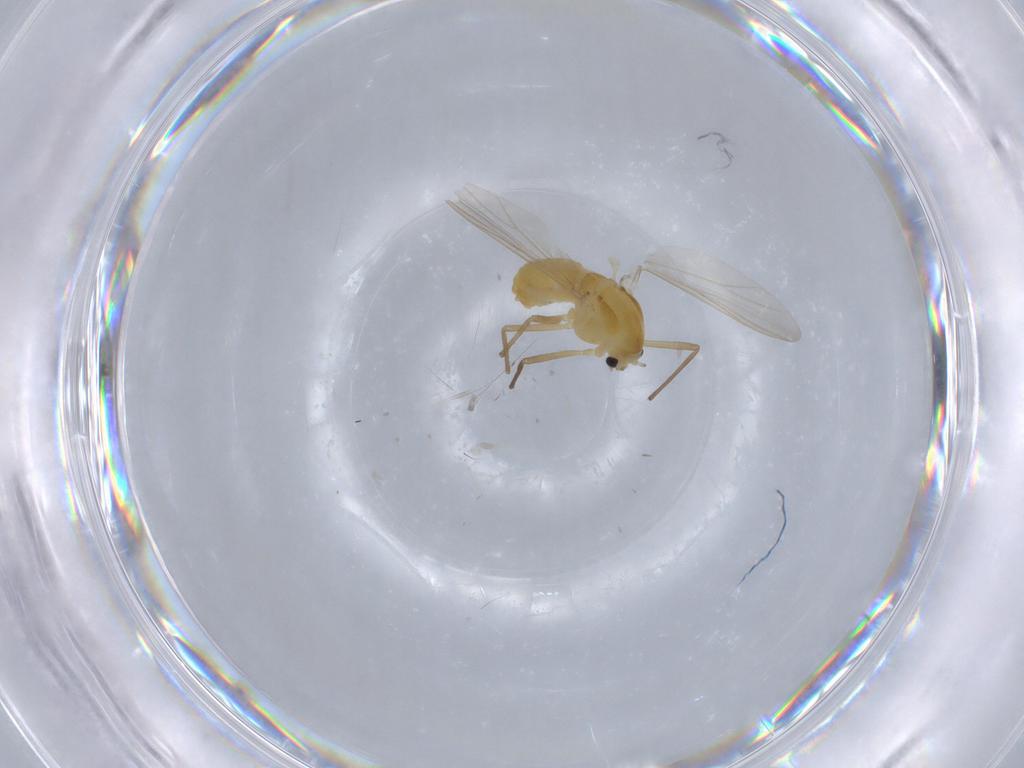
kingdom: Animalia
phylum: Arthropoda
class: Insecta
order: Diptera
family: Chironomidae
